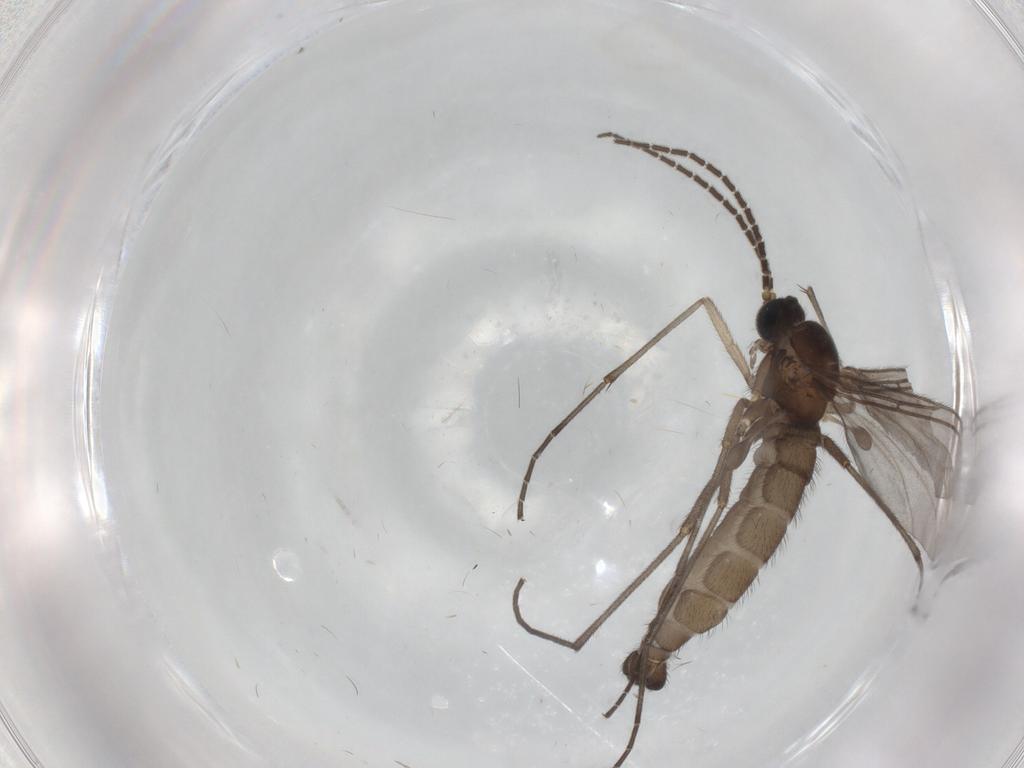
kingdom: Animalia
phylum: Arthropoda
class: Insecta
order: Diptera
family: Sciaridae
